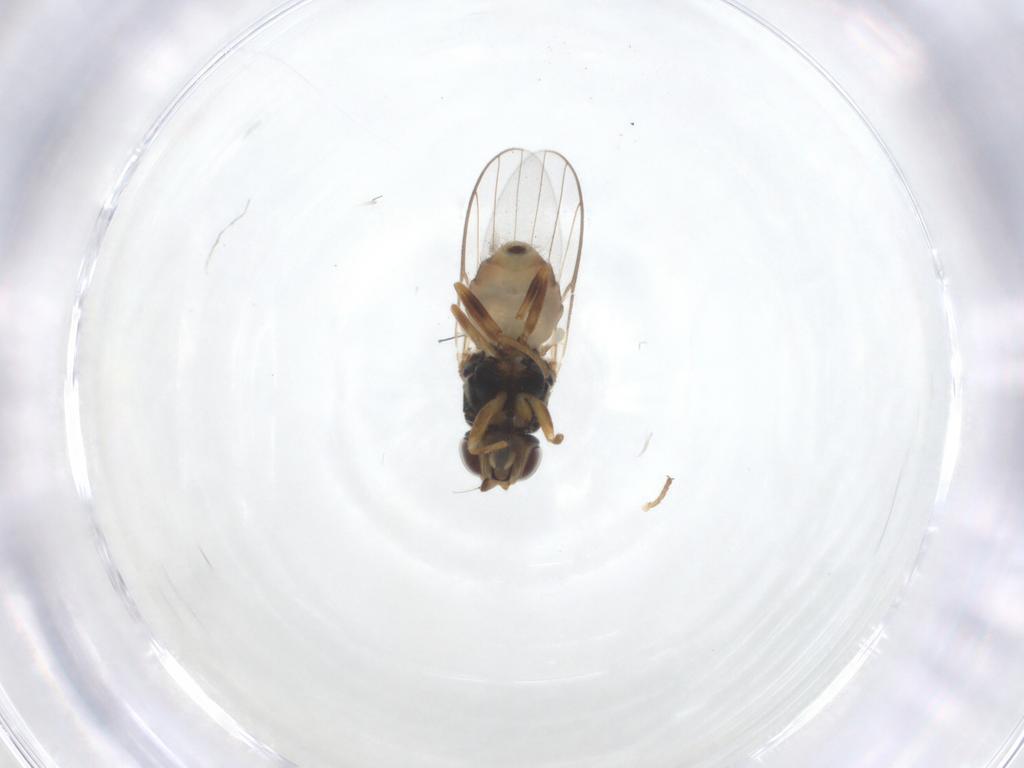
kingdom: Animalia
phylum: Arthropoda
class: Insecta
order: Diptera
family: Chloropidae
